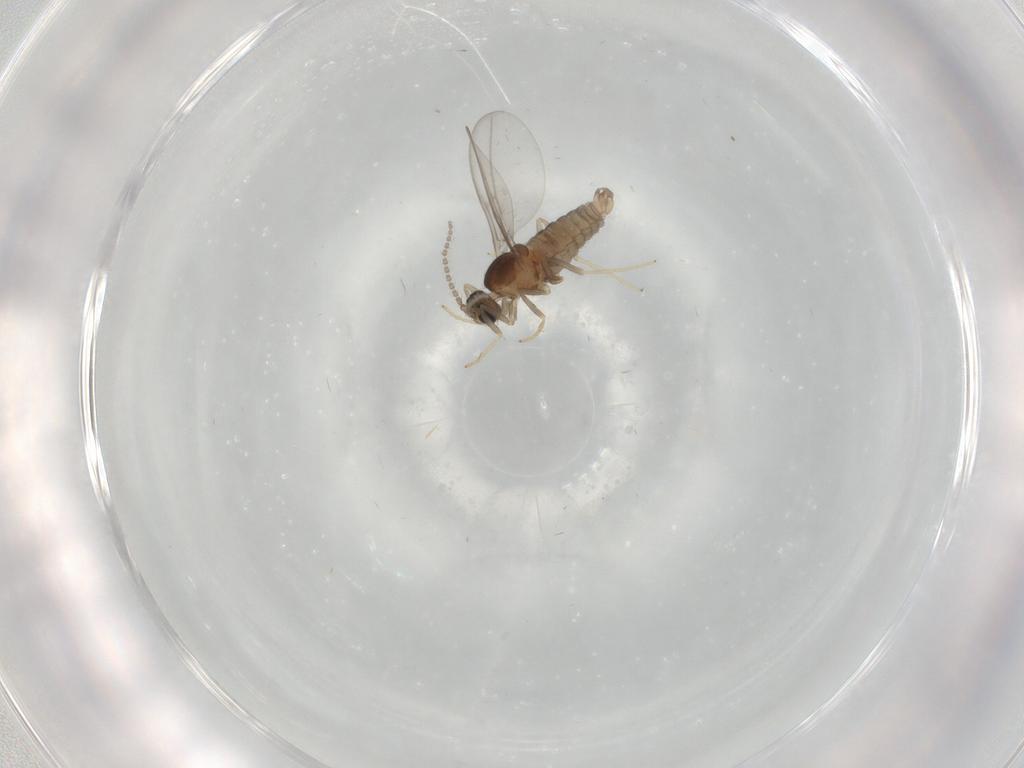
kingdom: Animalia
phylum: Arthropoda
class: Insecta
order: Diptera
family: Cecidomyiidae
